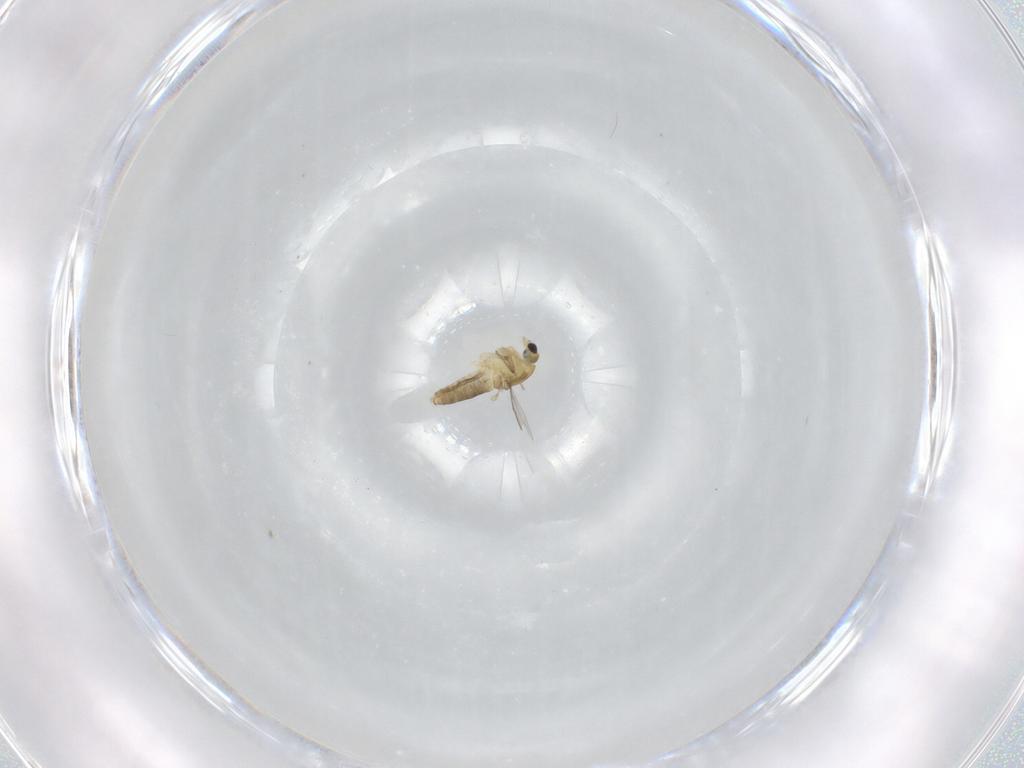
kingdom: Animalia
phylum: Arthropoda
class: Insecta
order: Diptera
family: Chironomidae
